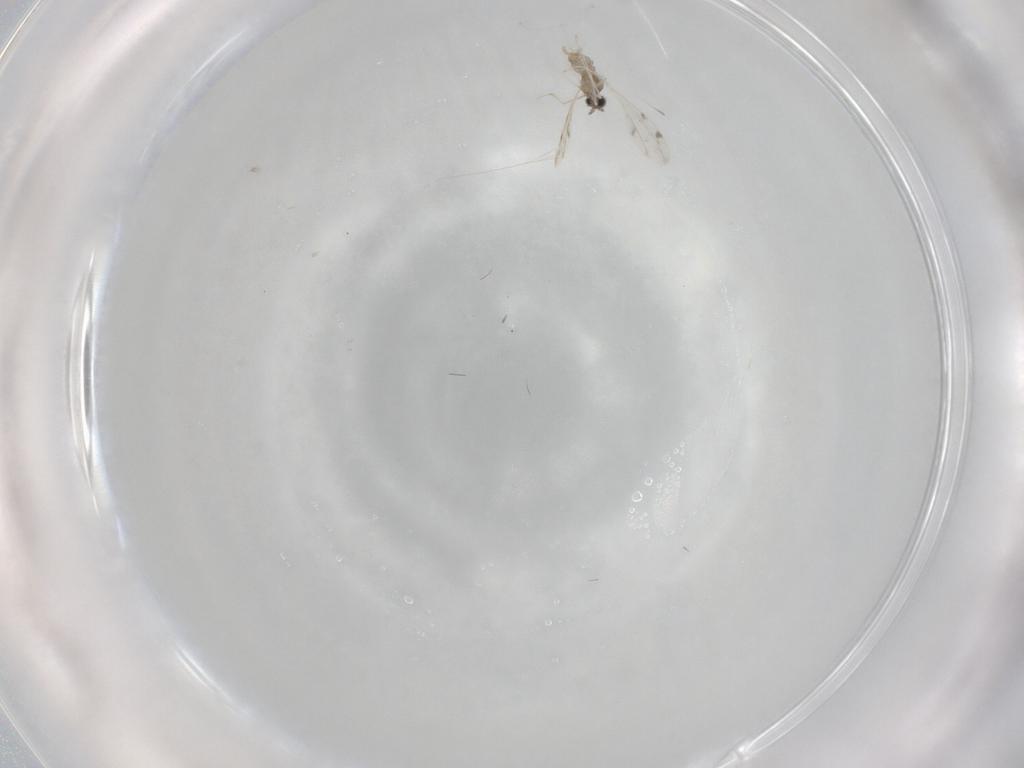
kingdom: Animalia
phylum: Arthropoda
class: Insecta
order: Diptera
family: Cecidomyiidae
